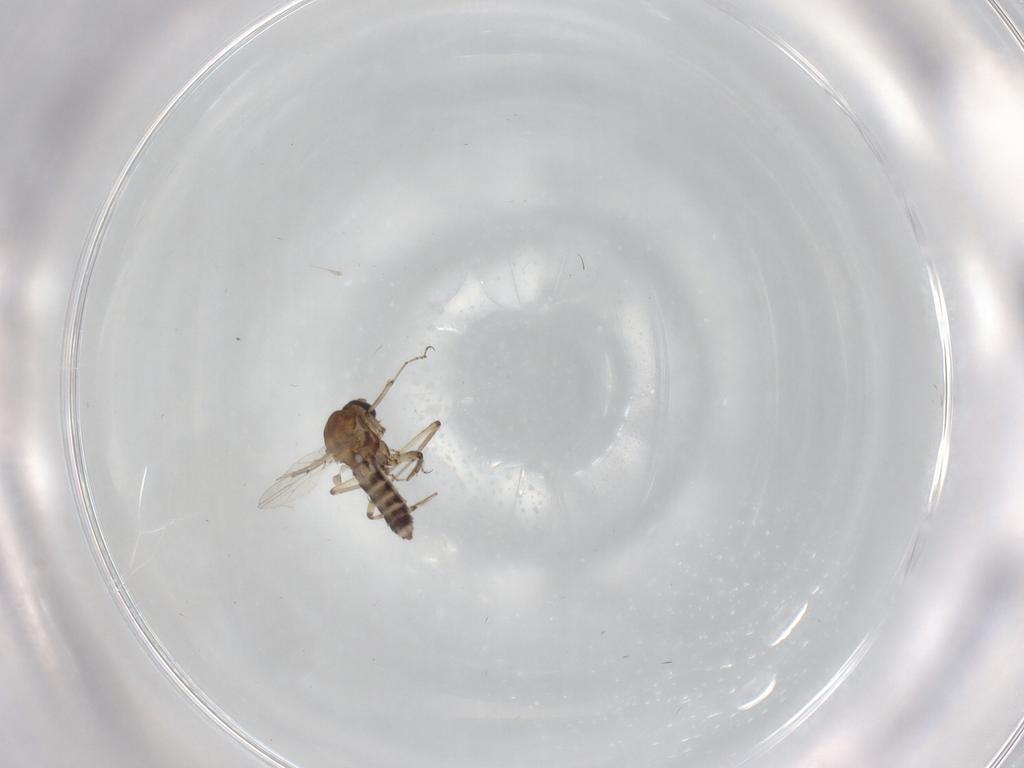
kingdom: Animalia
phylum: Arthropoda
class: Insecta
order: Diptera
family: Ceratopogonidae
